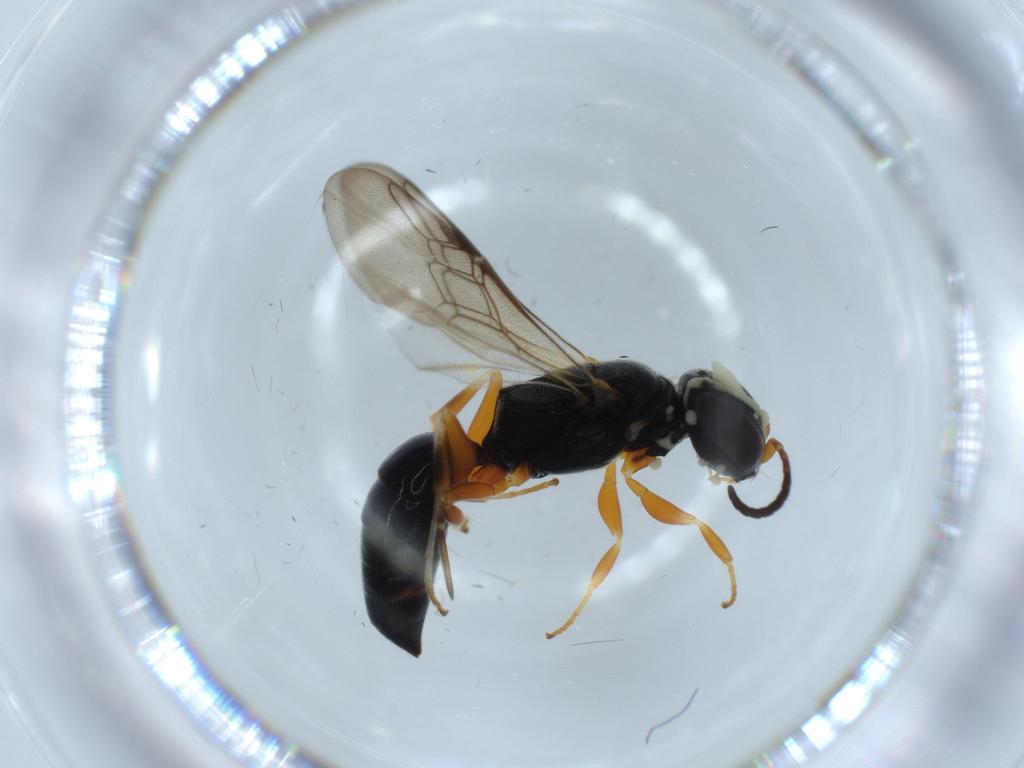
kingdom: Animalia
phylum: Arthropoda
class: Insecta
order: Hymenoptera
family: Crabronidae
